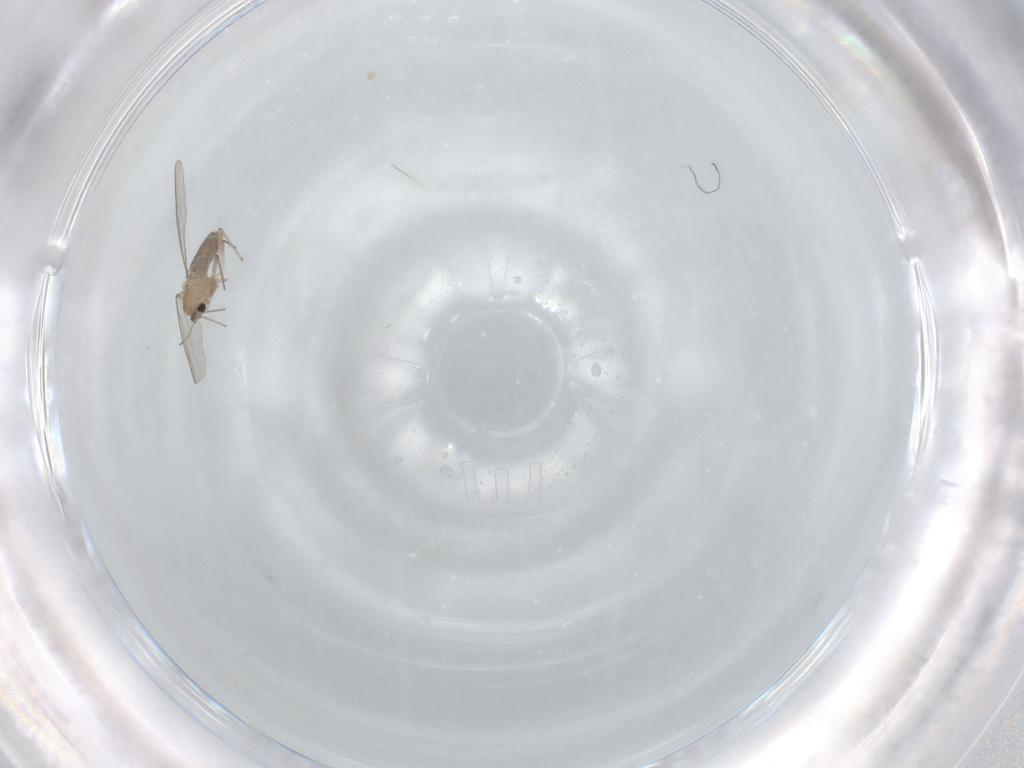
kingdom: Animalia
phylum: Arthropoda
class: Insecta
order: Diptera
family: Chironomidae
